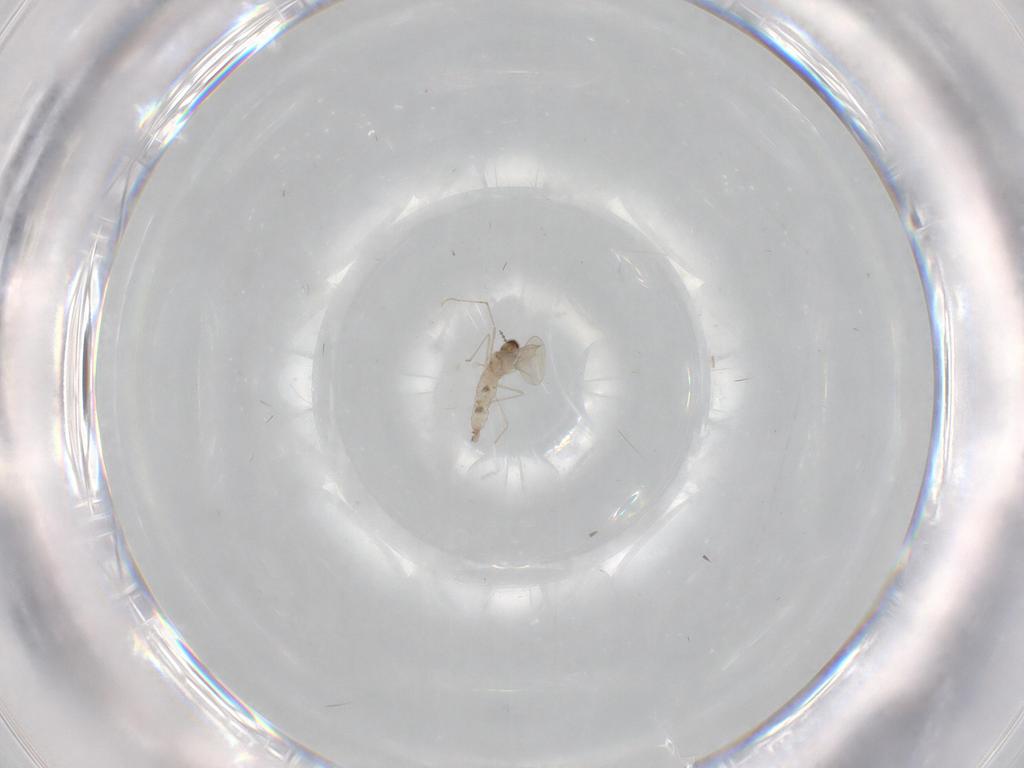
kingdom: Animalia
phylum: Arthropoda
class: Insecta
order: Diptera
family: Cecidomyiidae
